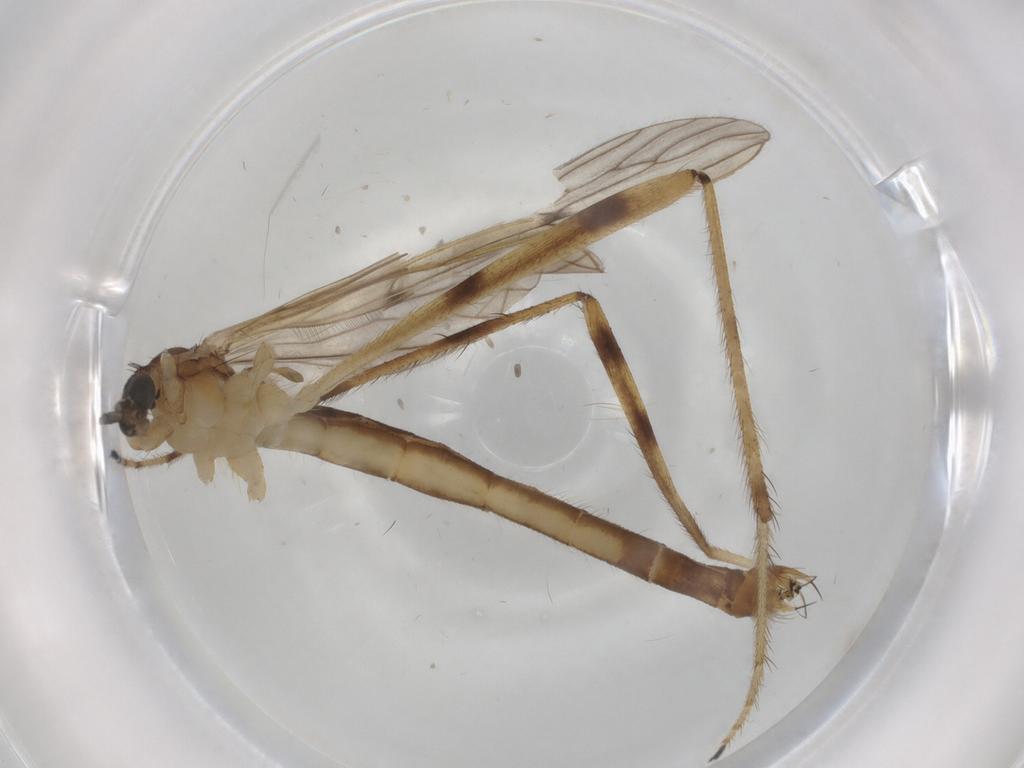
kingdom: Animalia
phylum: Arthropoda
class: Insecta
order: Diptera
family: Limoniidae
